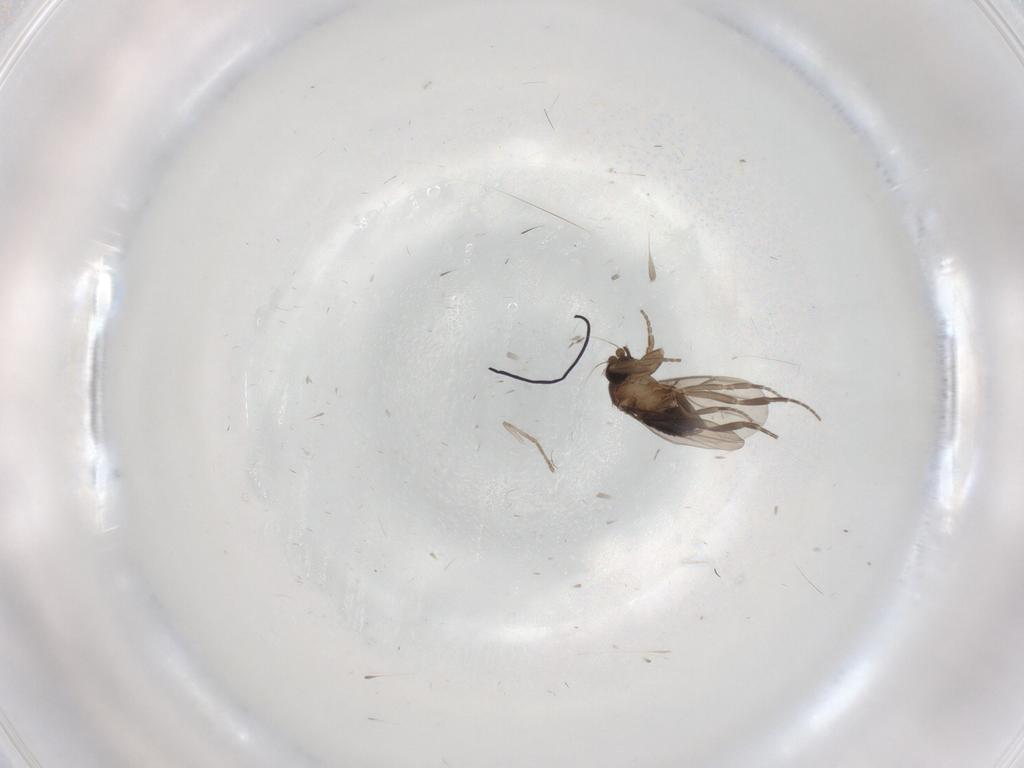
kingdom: Animalia
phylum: Arthropoda
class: Insecta
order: Diptera
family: Psychodidae
